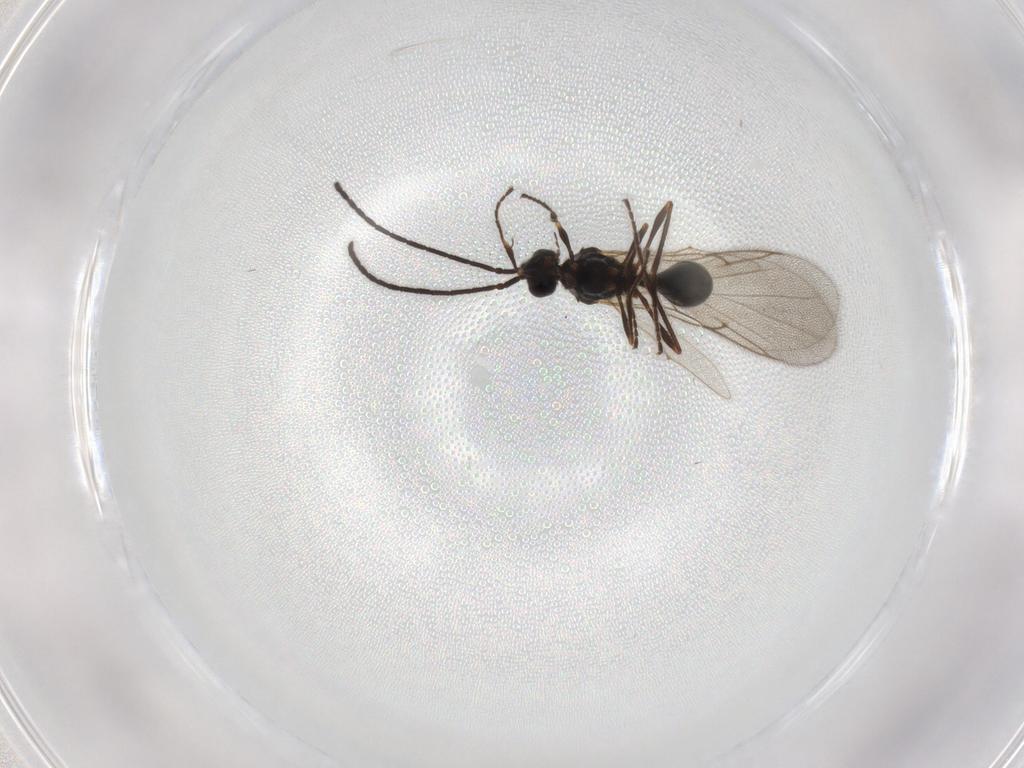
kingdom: Animalia
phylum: Arthropoda
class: Insecta
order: Hymenoptera
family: Diapriidae
